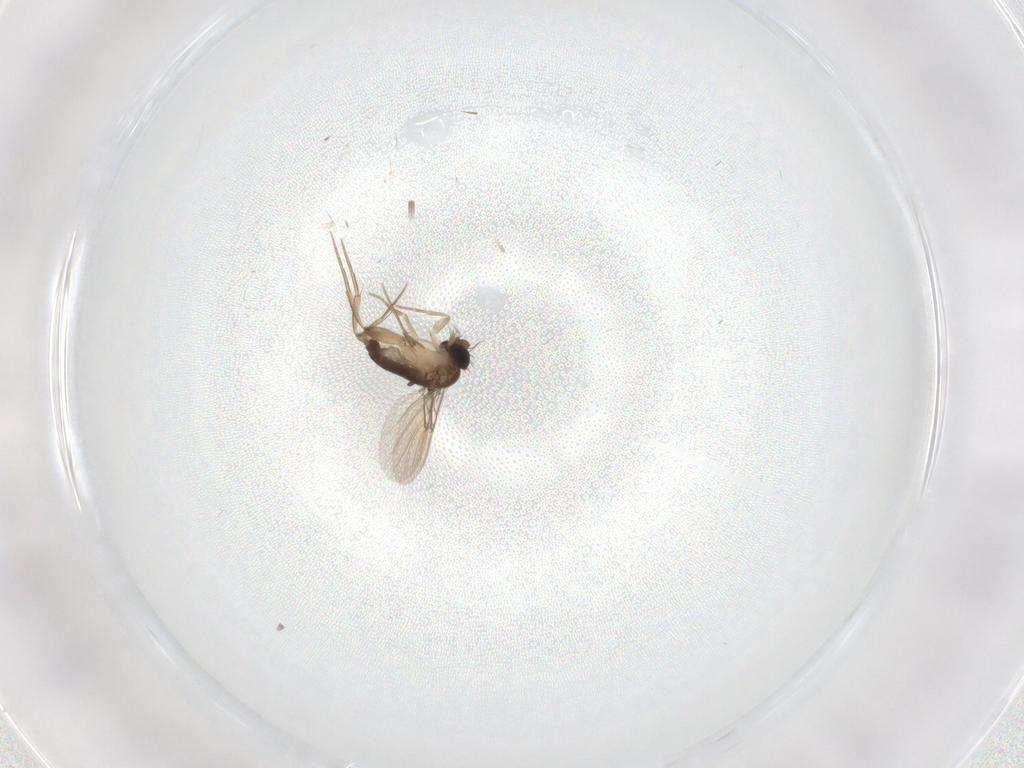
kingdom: Animalia
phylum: Arthropoda
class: Insecta
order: Diptera
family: Phoridae
